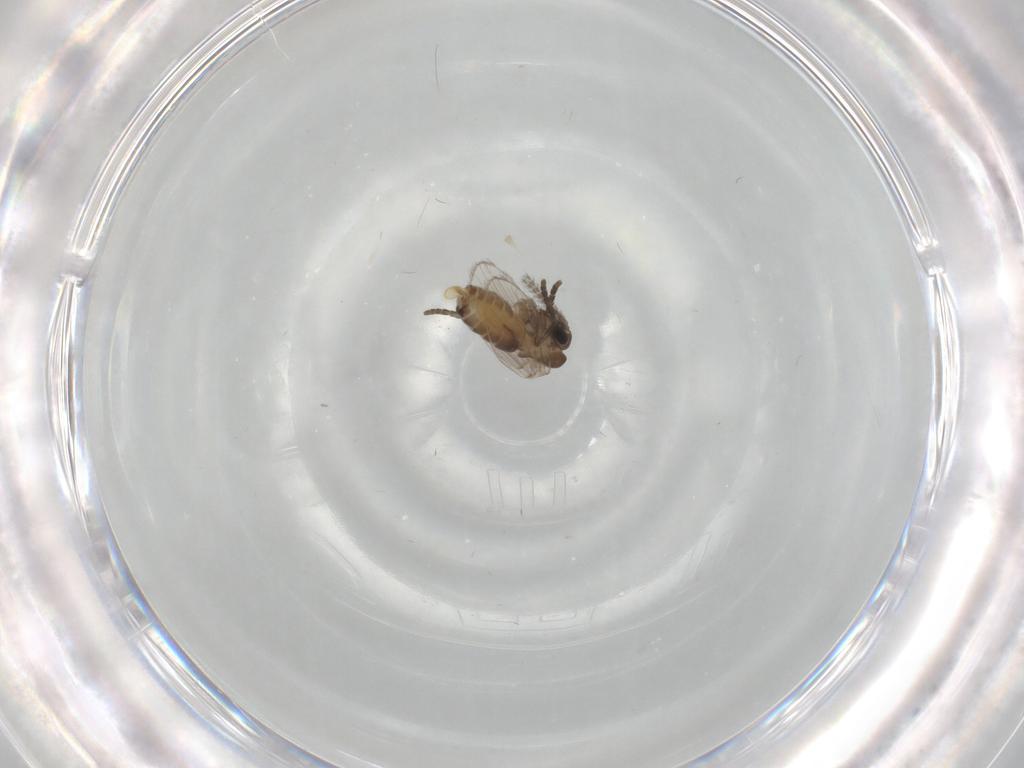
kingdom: Animalia
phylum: Arthropoda
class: Insecta
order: Diptera
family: Psychodidae
